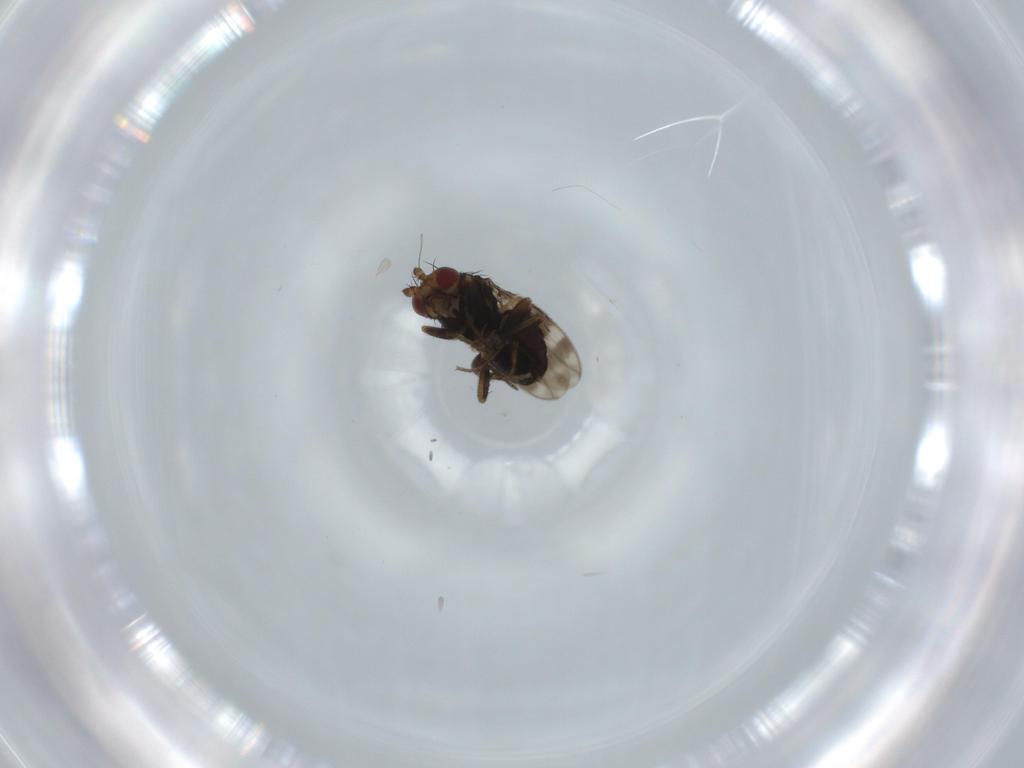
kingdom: Animalia
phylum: Arthropoda
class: Insecta
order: Diptera
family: Sphaeroceridae
